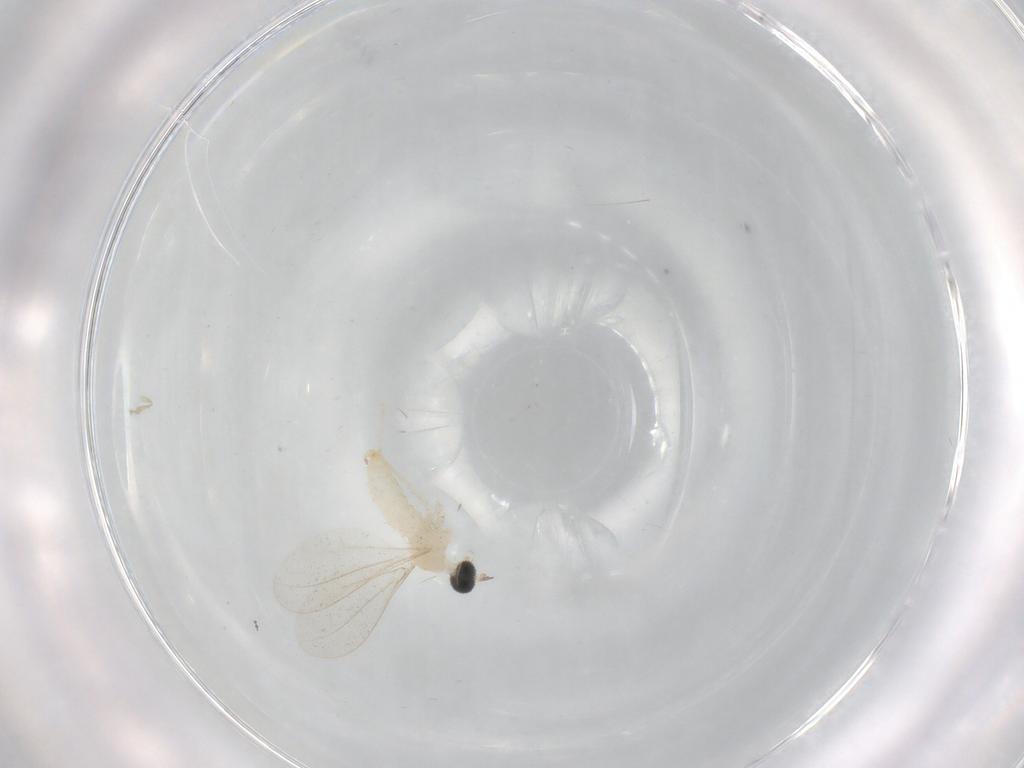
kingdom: Animalia
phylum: Arthropoda
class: Insecta
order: Diptera
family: Cecidomyiidae
